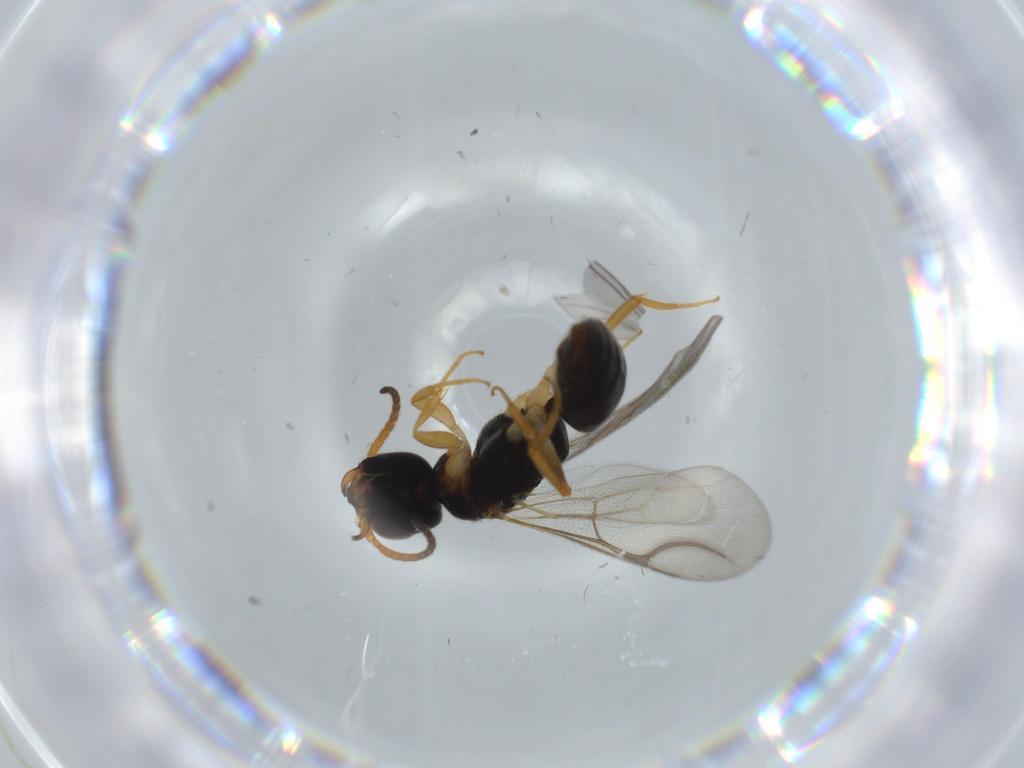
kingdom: Animalia
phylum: Arthropoda
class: Insecta
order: Hymenoptera
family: Bethylidae
